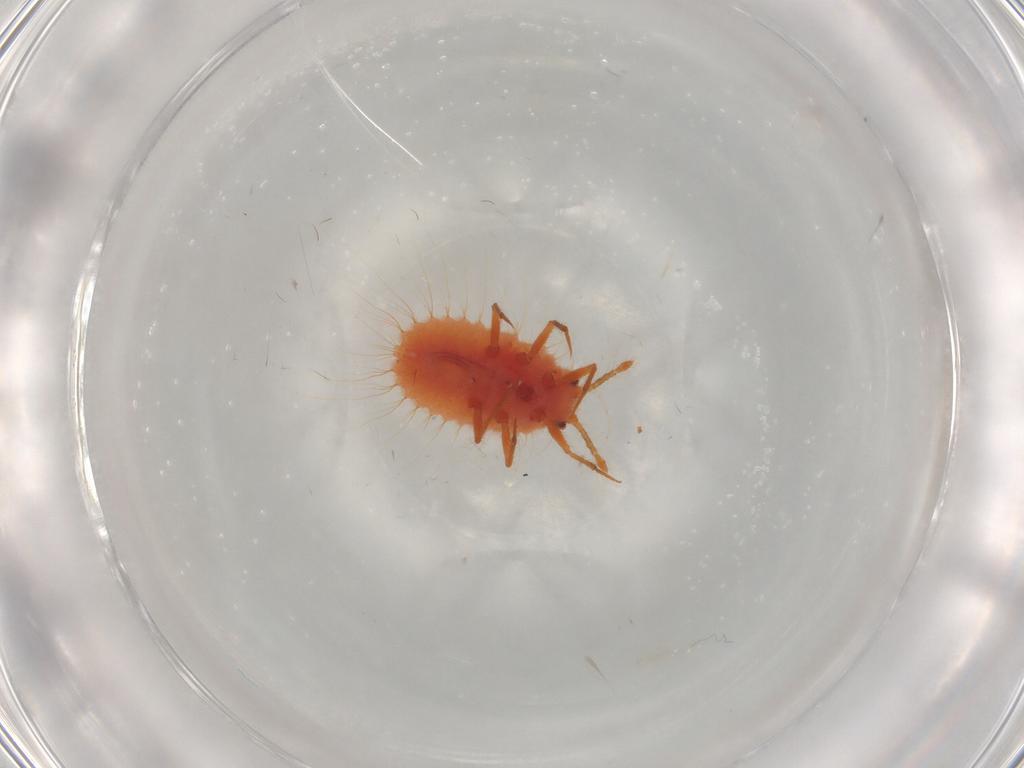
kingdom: Animalia
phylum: Arthropoda
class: Insecta
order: Hemiptera
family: Coccoidea_incertae_sedis
